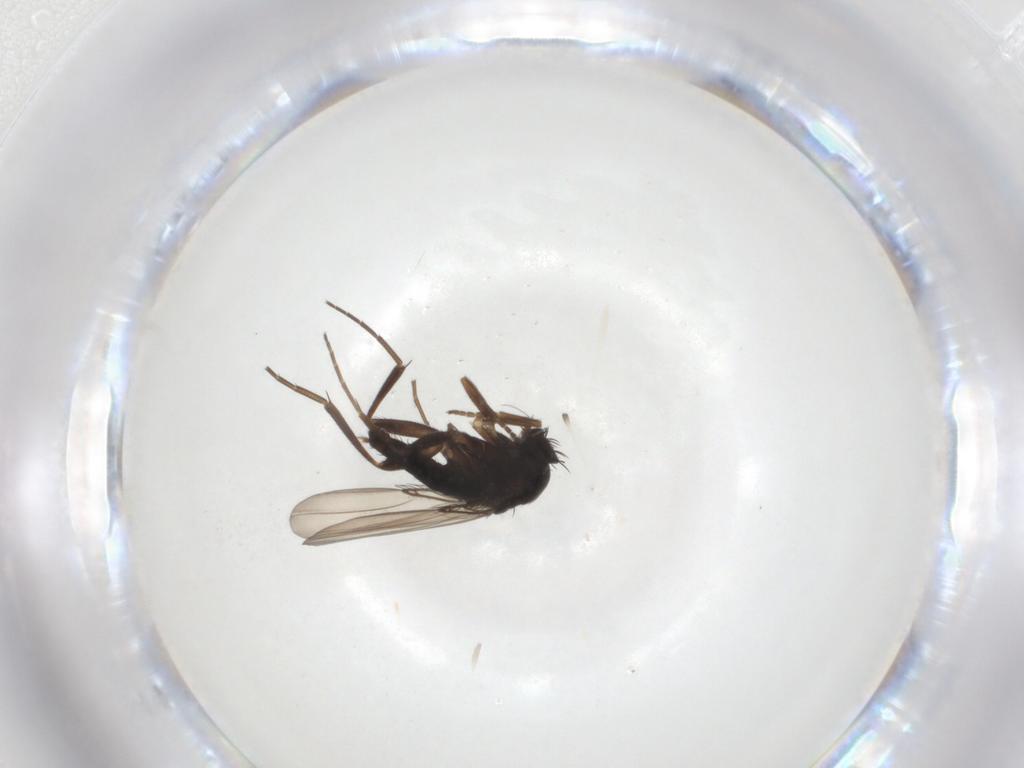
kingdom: Animalia
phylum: Arthropoda
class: Insecta
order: Diptera
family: Phoridae
